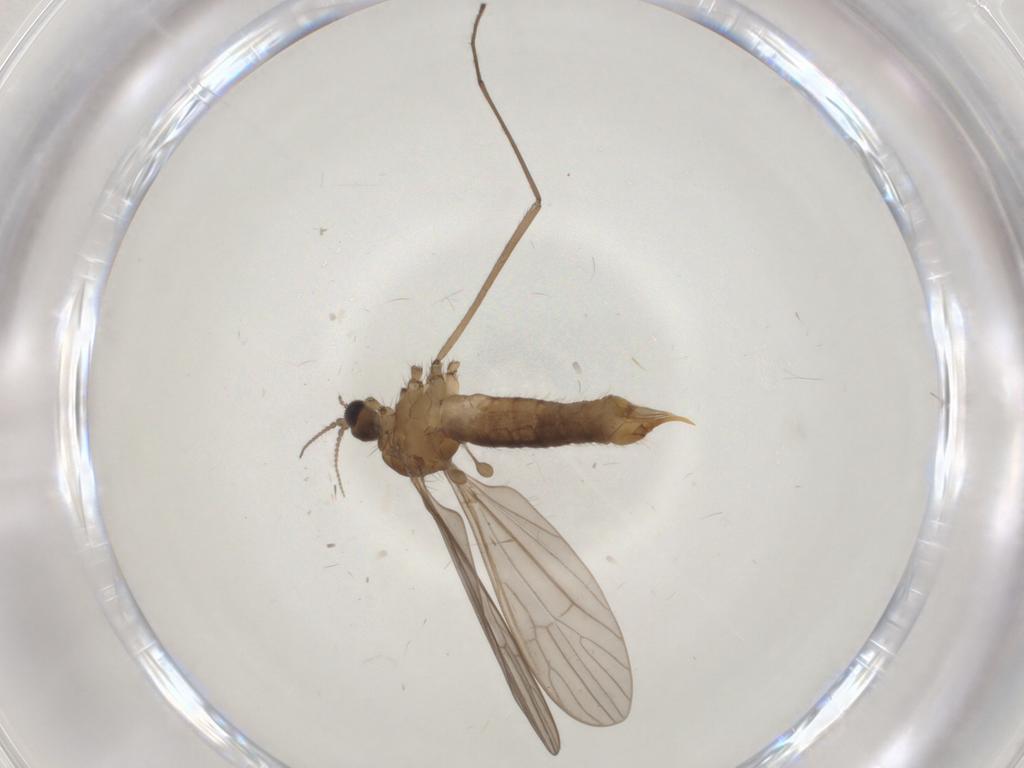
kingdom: Animalia
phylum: Arthropoda
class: Insecta
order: Diptera
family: Limoniidae
